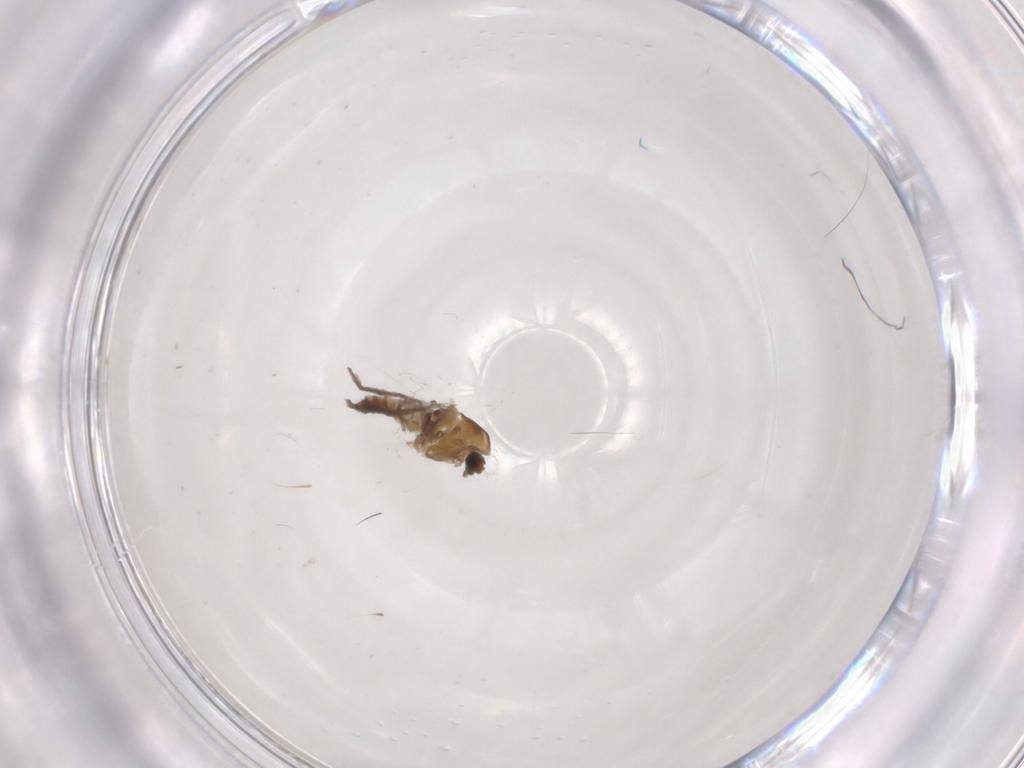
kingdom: Animalia
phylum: Arthropoda
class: Insecta
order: Diptera
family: Chironomidae
